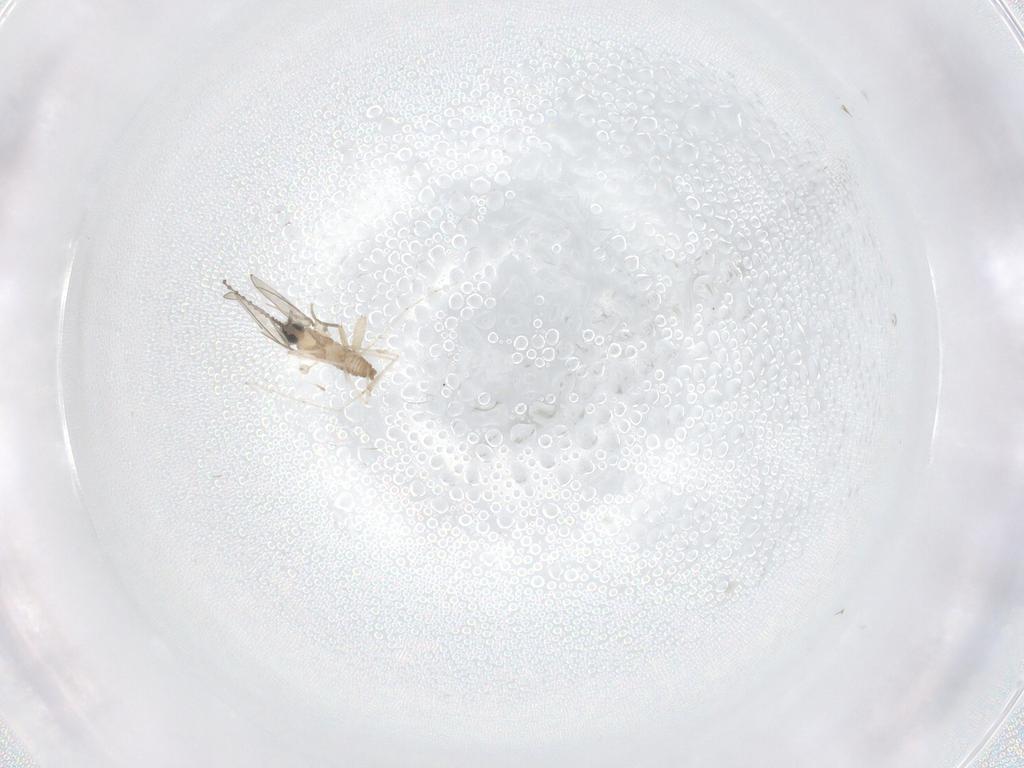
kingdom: Animalia
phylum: Arthropoda
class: Insecta
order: Diptera
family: Cecidomyiidae
